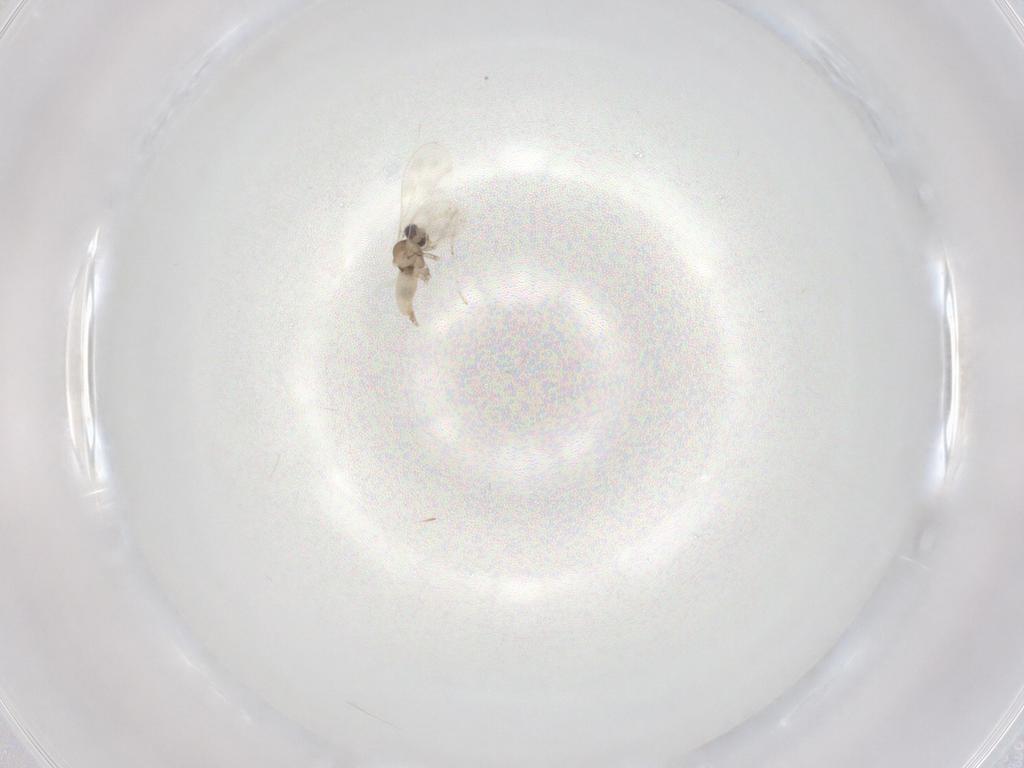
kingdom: Animalia
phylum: Arthropoda
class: Insecta
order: Diptera
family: Cecidomyiidae
